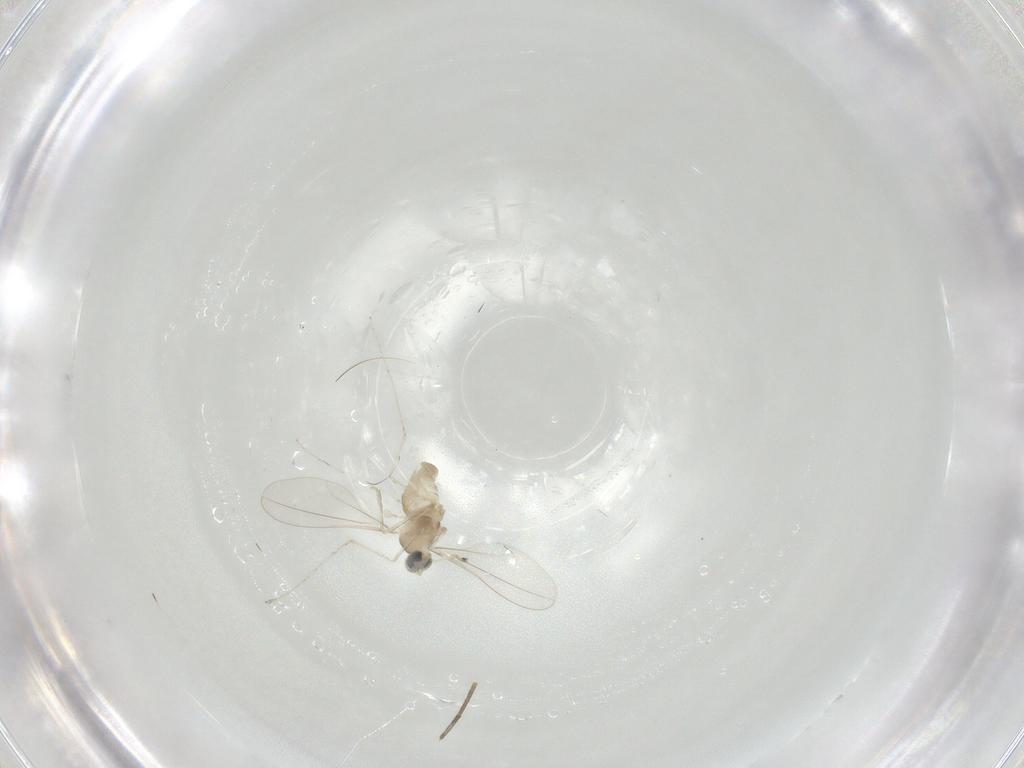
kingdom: Animalia
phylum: Arthropoda
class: Insecta
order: Diptera
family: Cecidomyiidae
